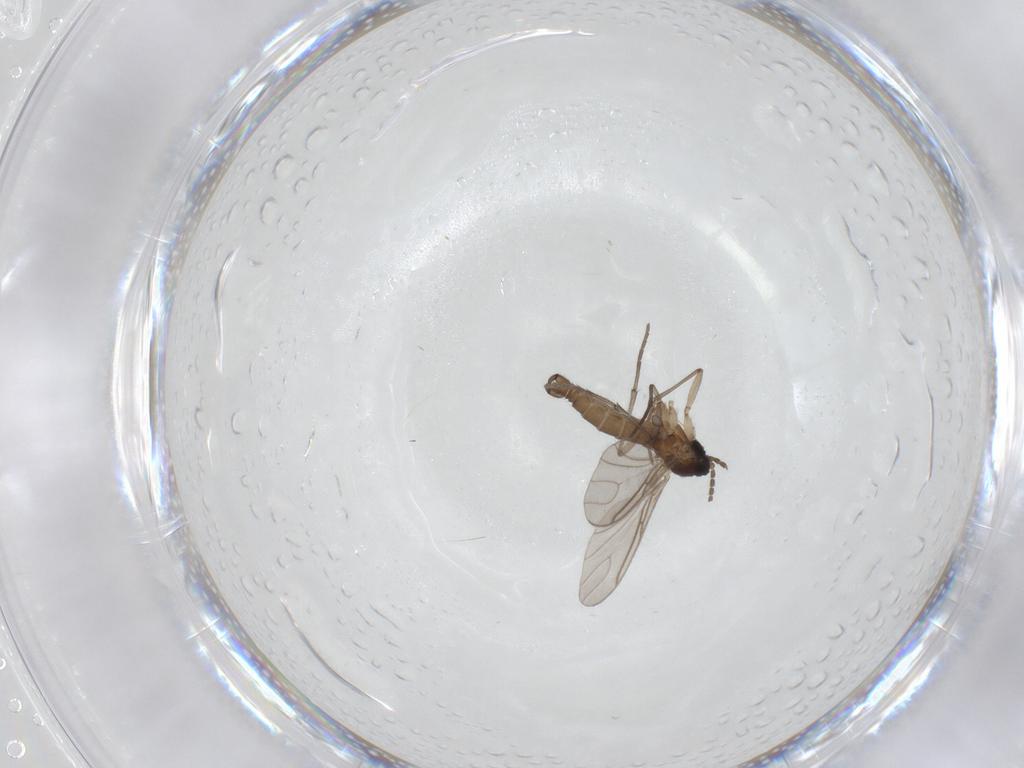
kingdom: Animalia
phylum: Arthropoda
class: Insecta
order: Diptera
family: Sciaridae
